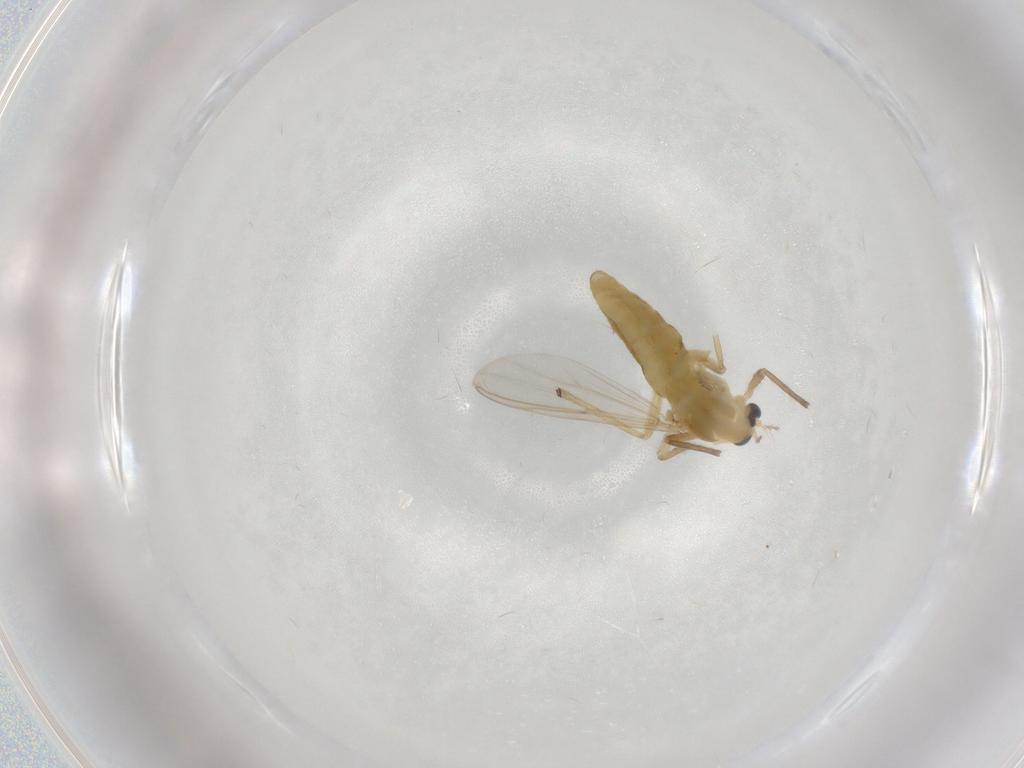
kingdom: Animalia
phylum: Arthropoda
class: Insecta
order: Diptera
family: Chironomidae
